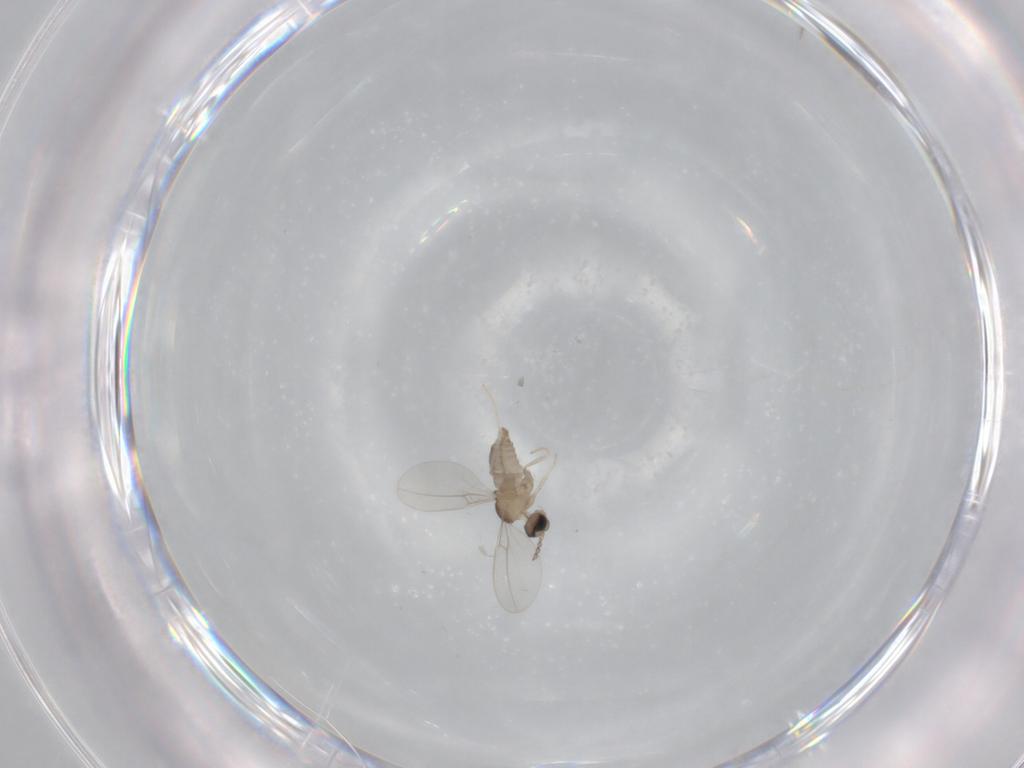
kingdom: Animalia
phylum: Arthropoda
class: Insecta
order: Diptera
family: Cecidomyiidae
